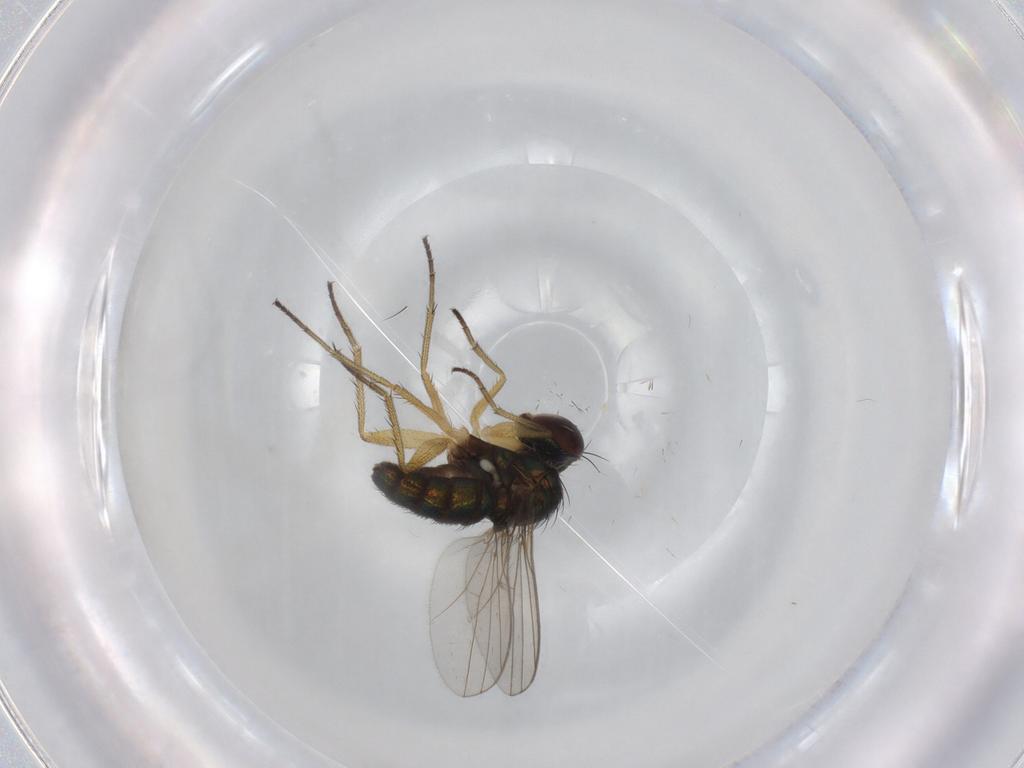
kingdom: Animalia
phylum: Arthropoda
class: Insecta
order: Diptera
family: Dolichopodidae
